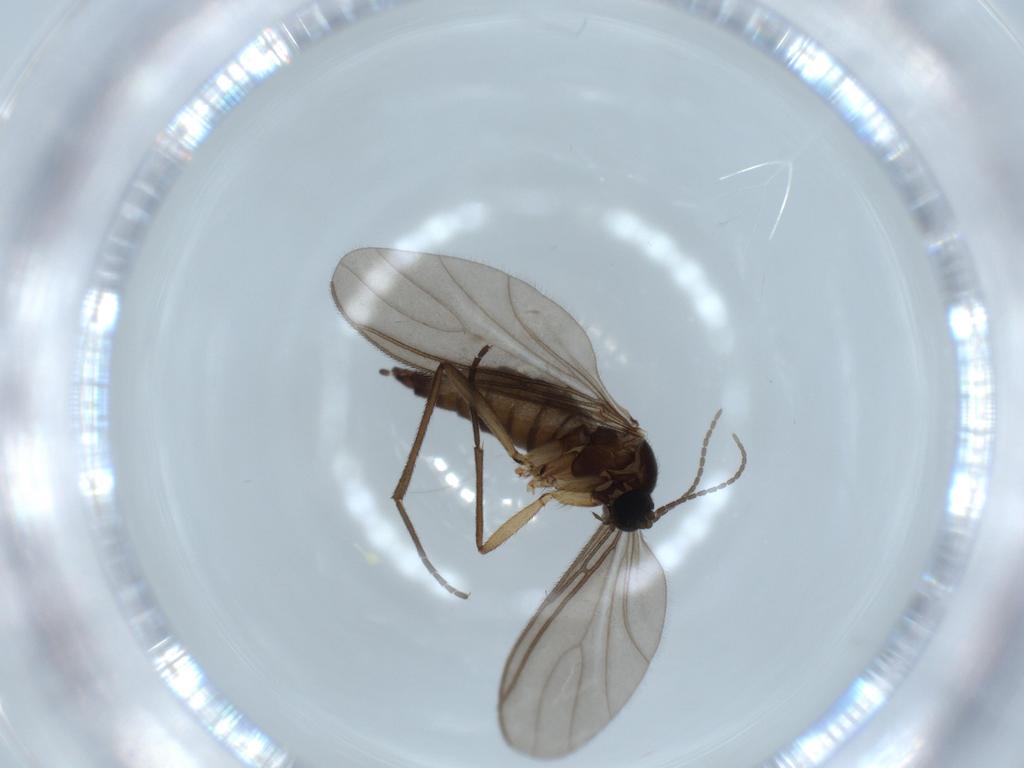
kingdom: Animalia
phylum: Arthropoda
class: Insecta
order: Diptera
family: Sciaridae
